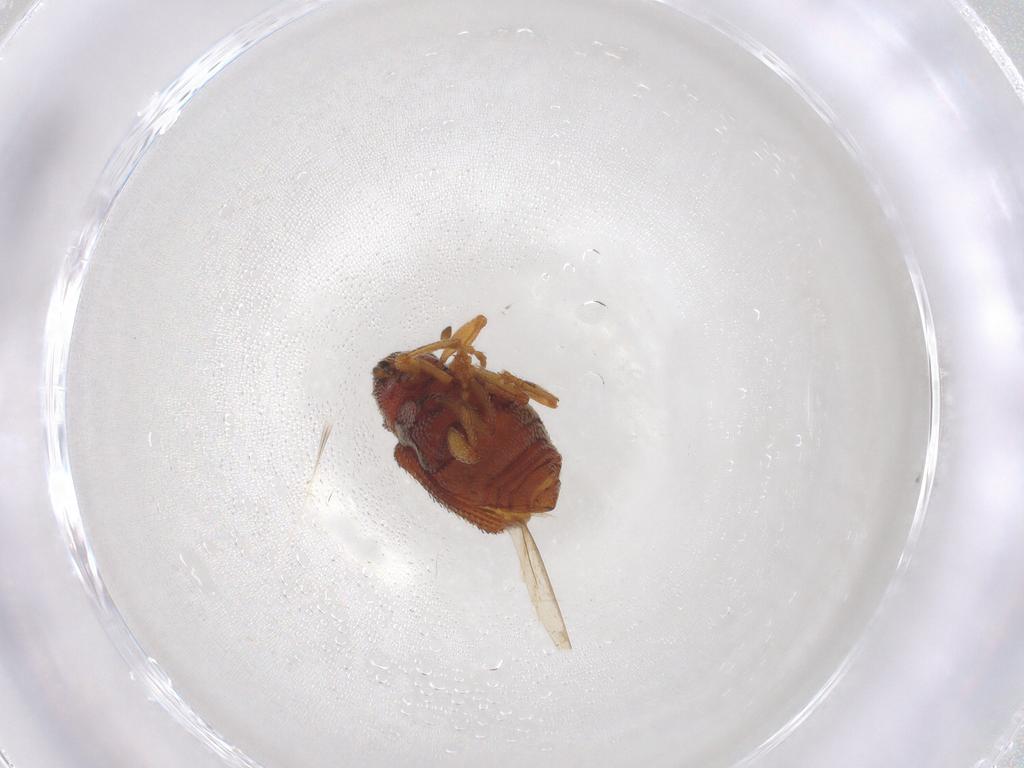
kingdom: Animalia
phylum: Arthropoda
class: Insecta
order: Coleoptera
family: Curculionidae
